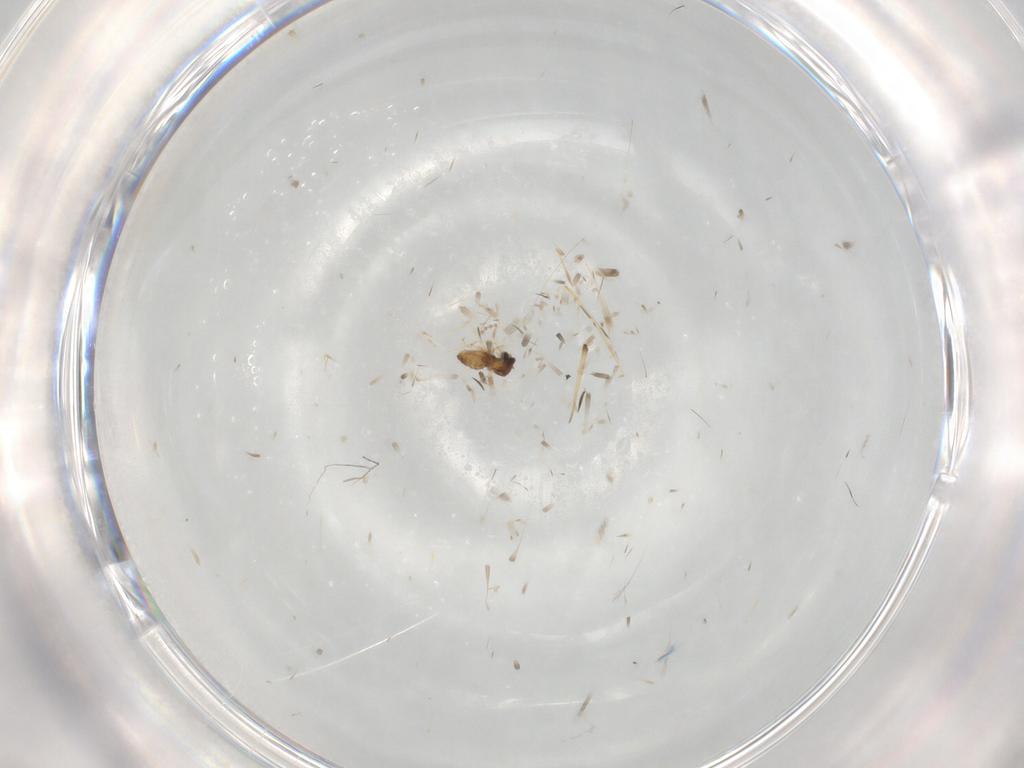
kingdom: Animalia
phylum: Arthropoda
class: Insecta
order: Diptera
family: Cecidomyiidae
